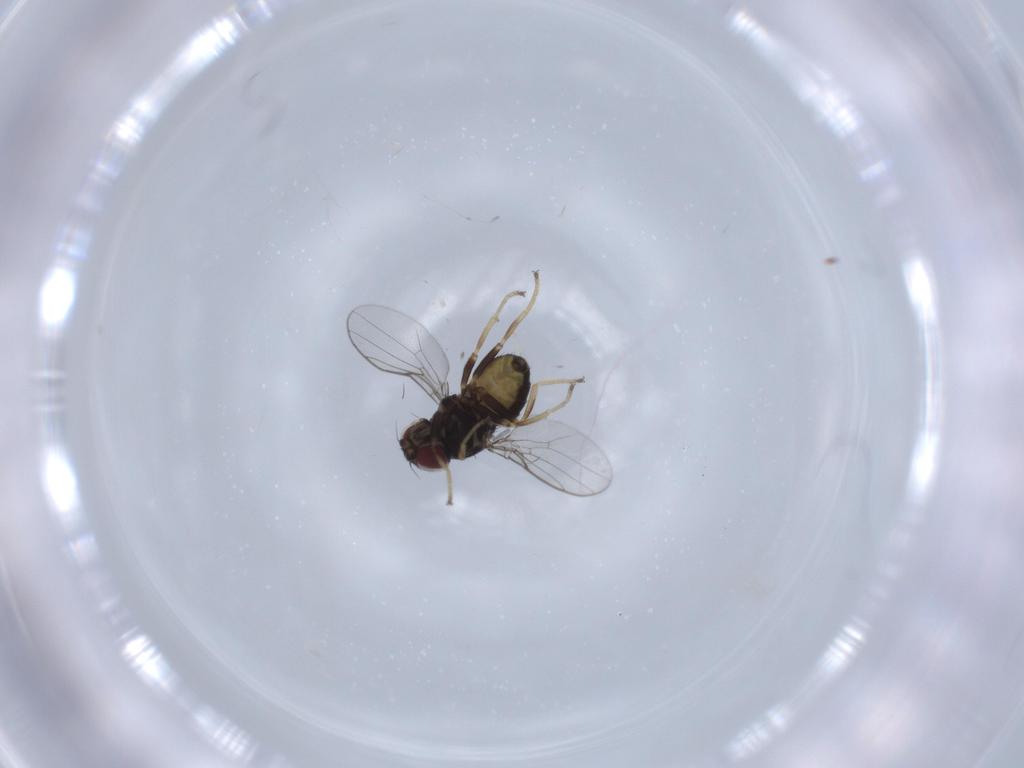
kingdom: Animalia
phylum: Arthropoda
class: Insecta
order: Diptera
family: Chloropidae
